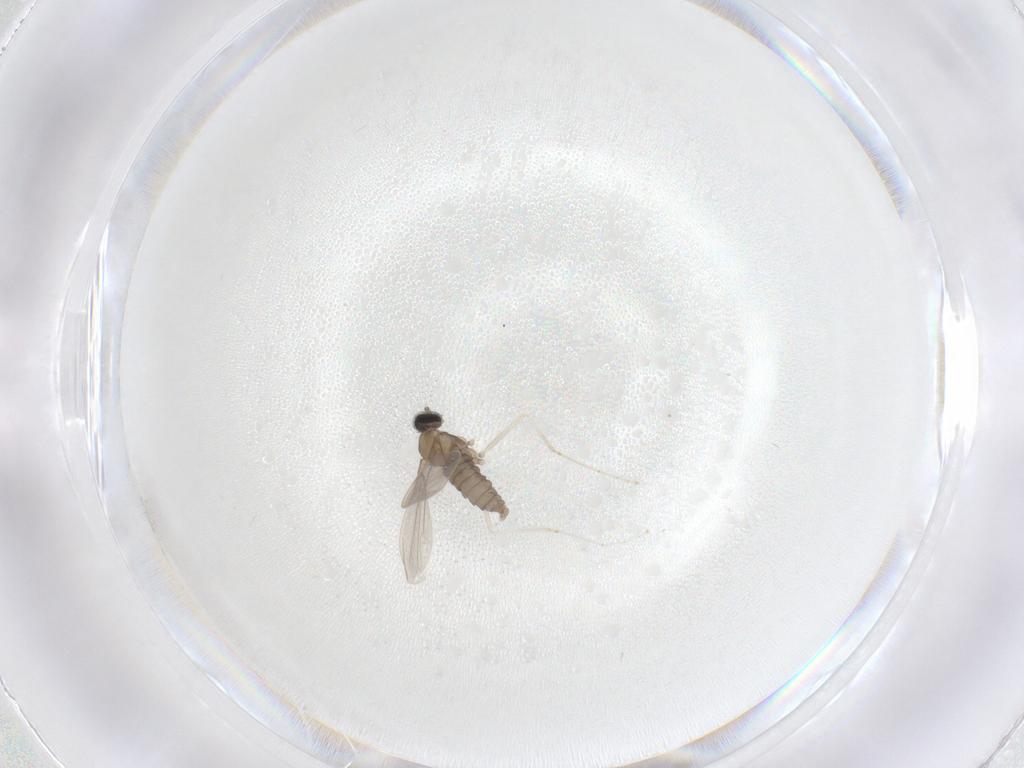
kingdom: Animalia
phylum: Arthropoda
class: Insecta
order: Diptera
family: Cecidomyiidae
